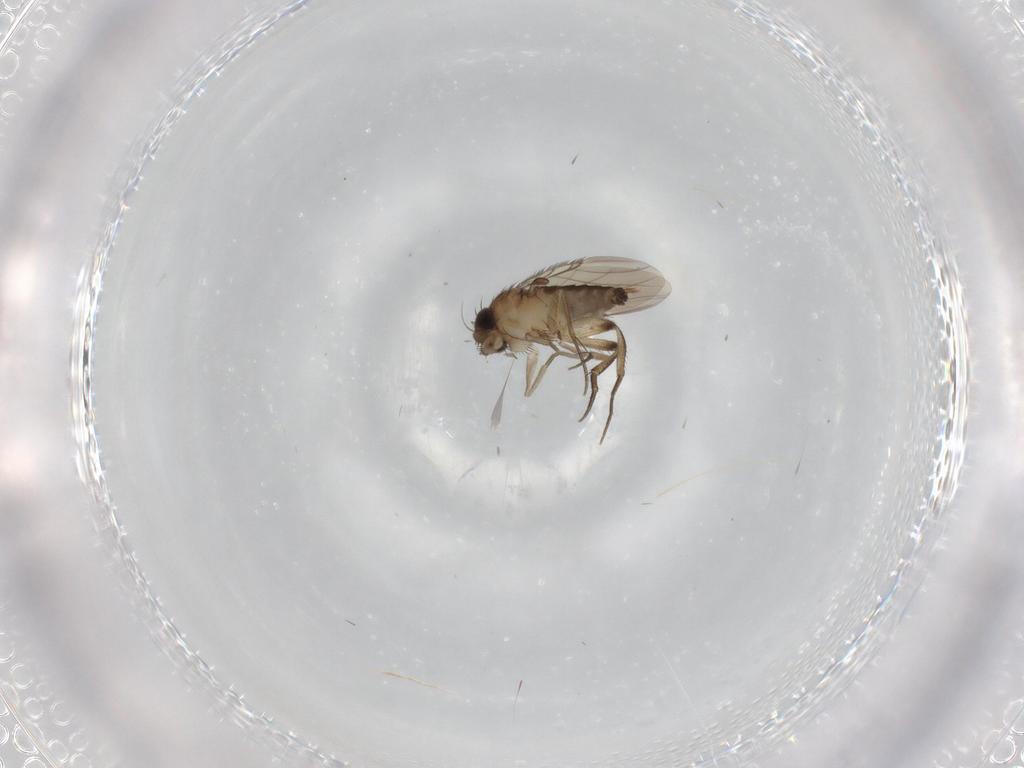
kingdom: Animalia
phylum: Arthropoda
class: Insecta
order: Diptera
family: Phoridae
